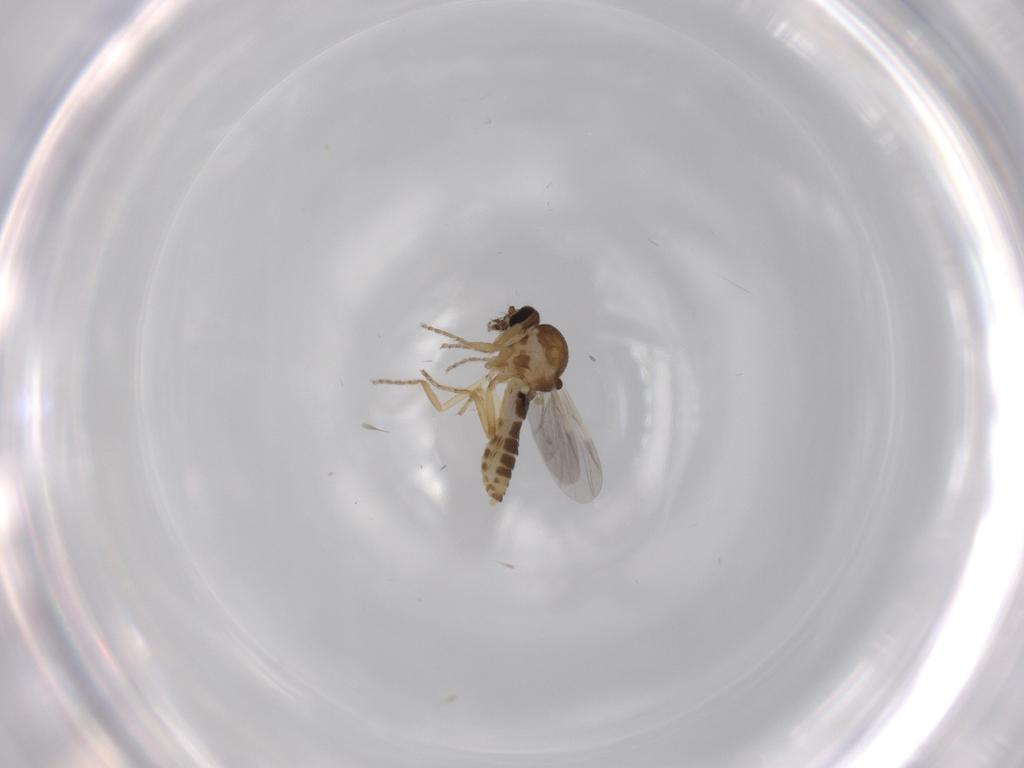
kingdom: Animalia
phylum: Arthropoda
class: Insecta
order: Diptera
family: Ceratopogonidae
